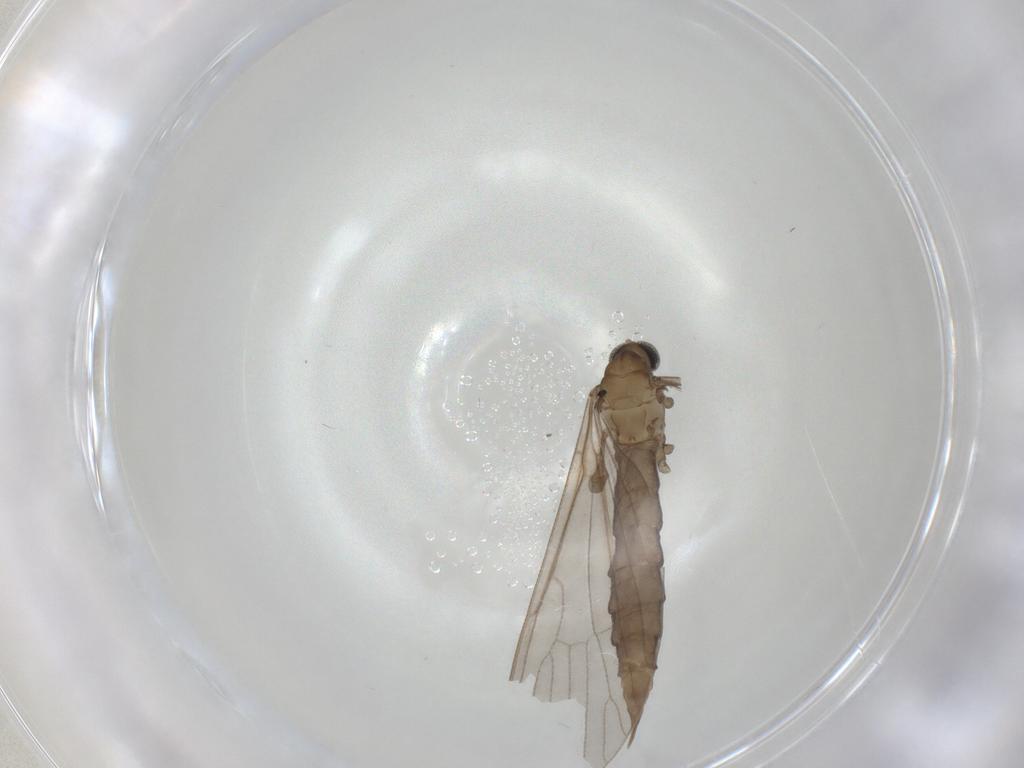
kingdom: Animalia
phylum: Arthropoda
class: Insecta
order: Diptera
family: Limoniidae
